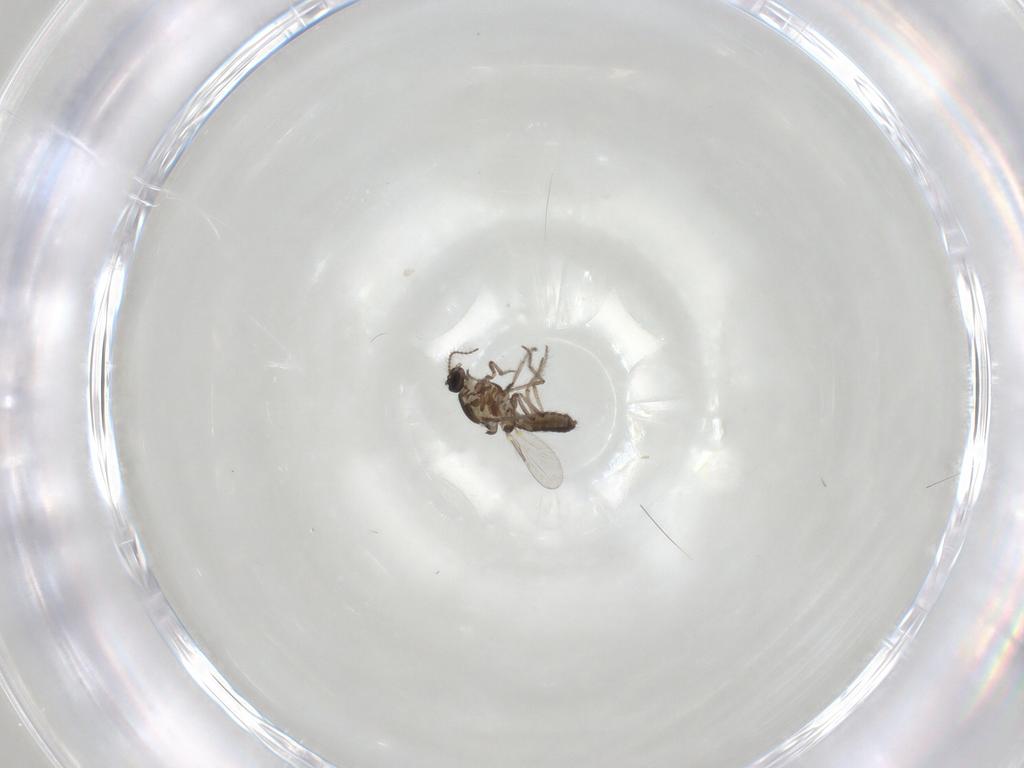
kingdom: Animalia
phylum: Arthropoda
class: Insecta
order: Diptera
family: Ceratopogonidae
